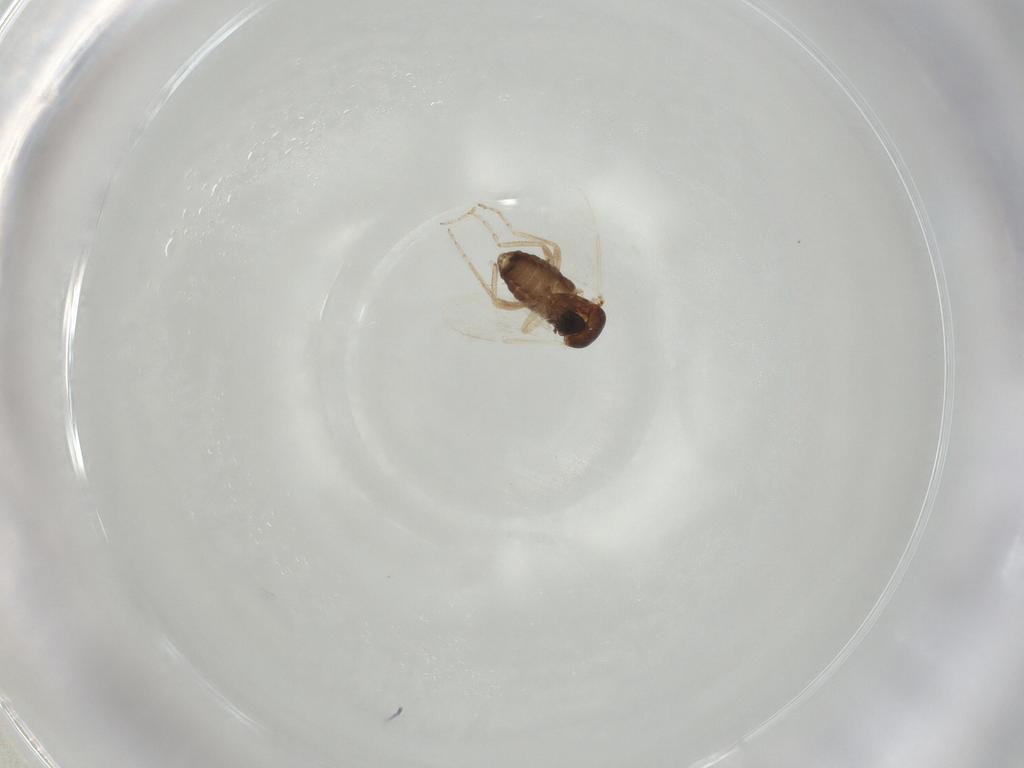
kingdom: Animalia
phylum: Arthropoda
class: Insecta
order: Diptera
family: Ceratopogonidae
